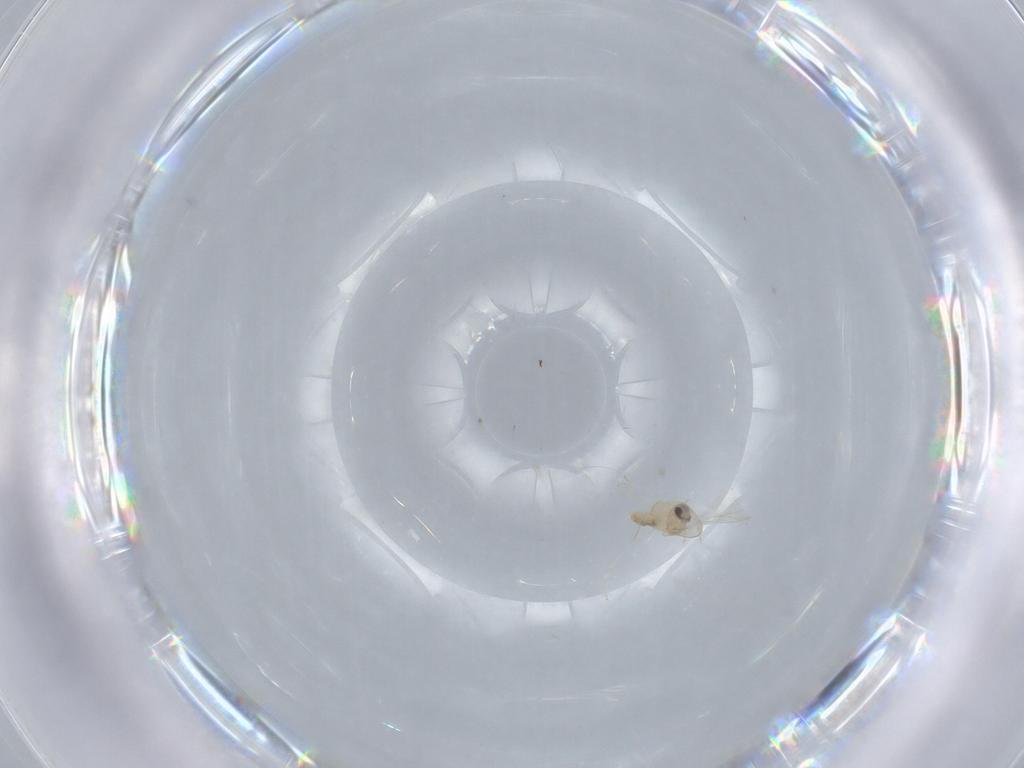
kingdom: Animalia
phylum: Arthropoda
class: Insecta
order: Diptera
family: Cecidomyiidae
